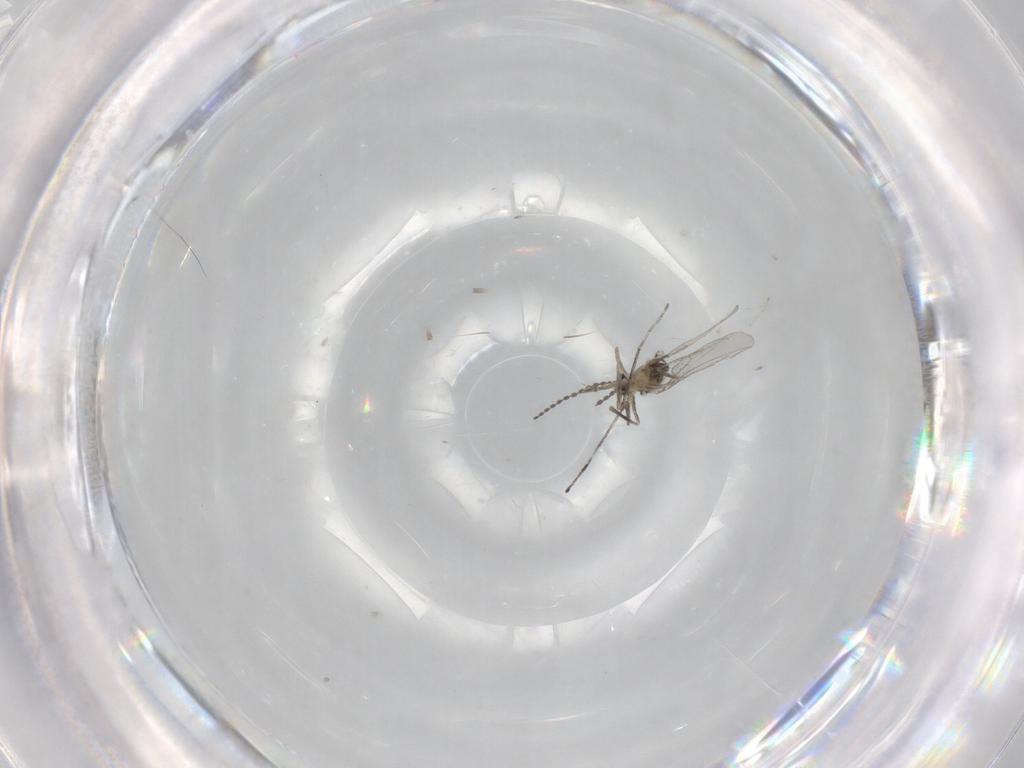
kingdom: Animalia
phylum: Arthropoda
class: Insecta
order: Diptera
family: Cecidomyiidae
